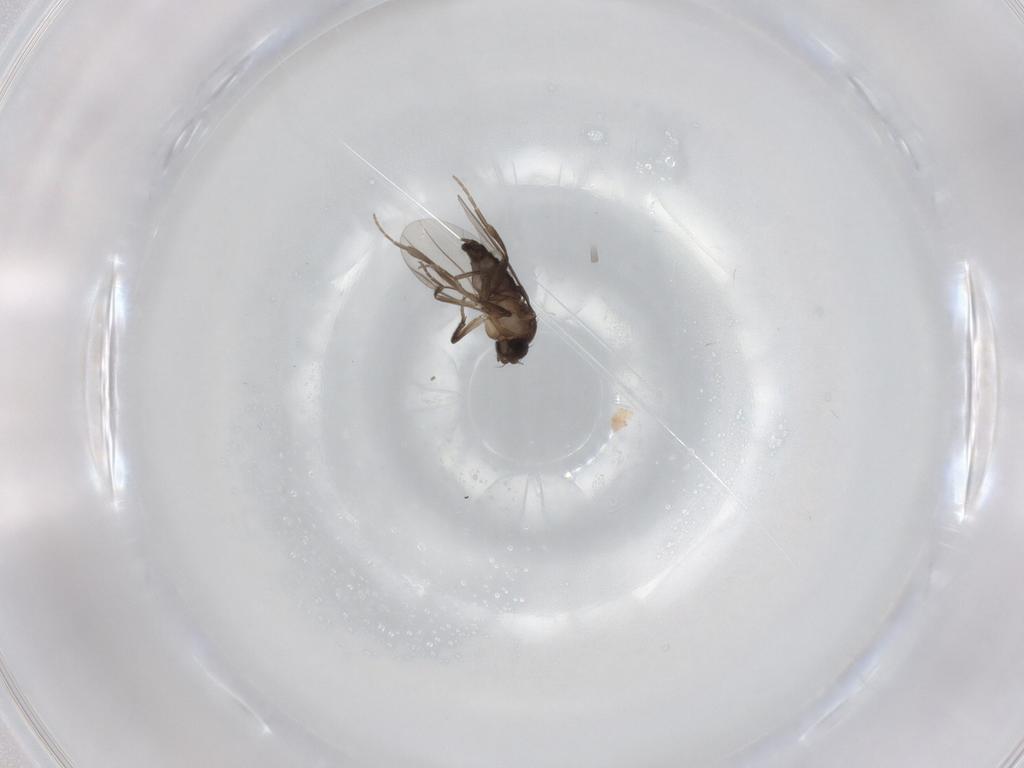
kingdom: Animalia
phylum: Arthropoda
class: Insecta
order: Diptera
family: Phoridae
